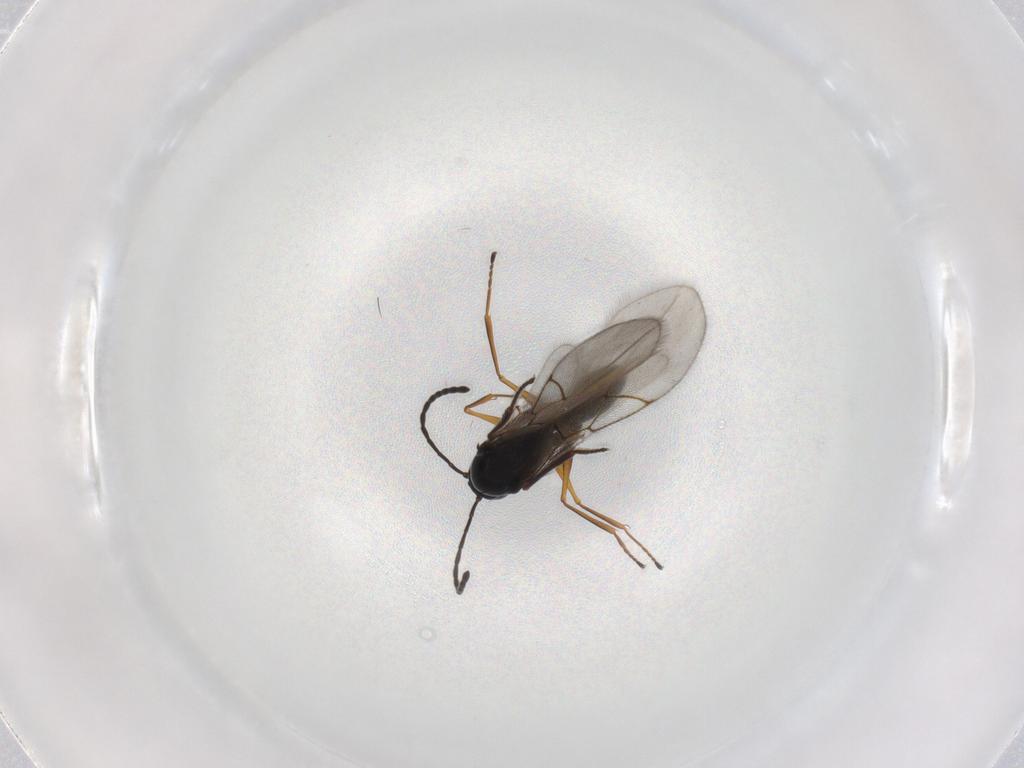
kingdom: Animalia
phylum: Arthropoda
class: Insecta
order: Hymenoptera
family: Figitidae
